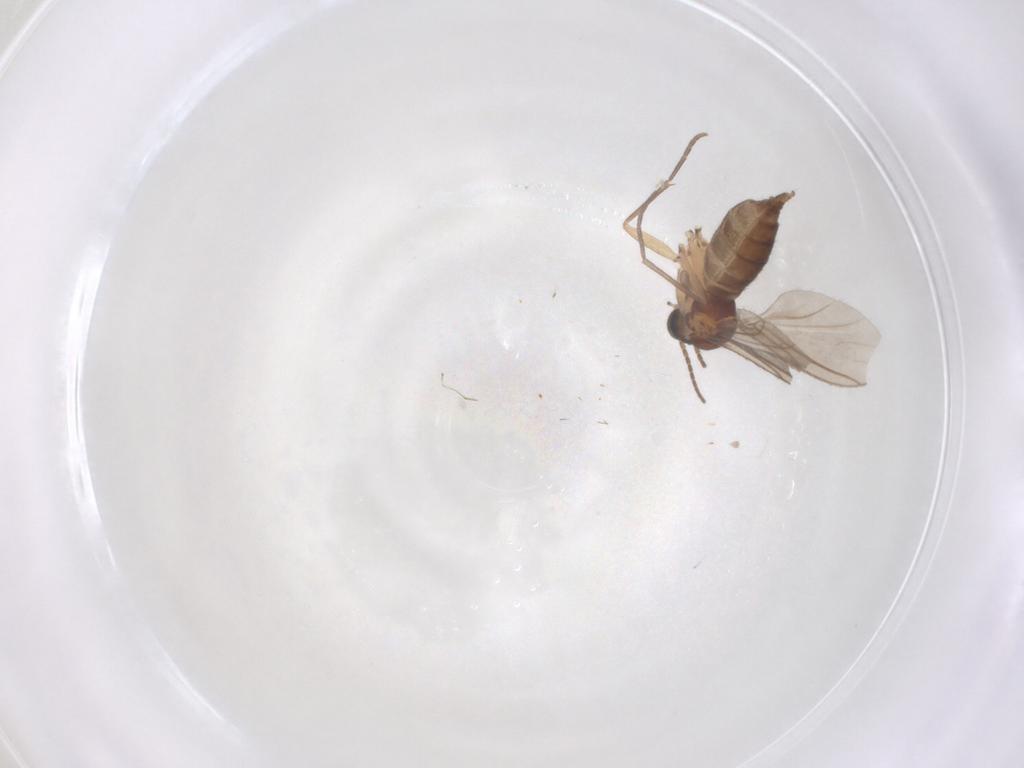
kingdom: Animalia
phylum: Arthropoda
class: Insecta
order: Diptera
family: Sciaridae
